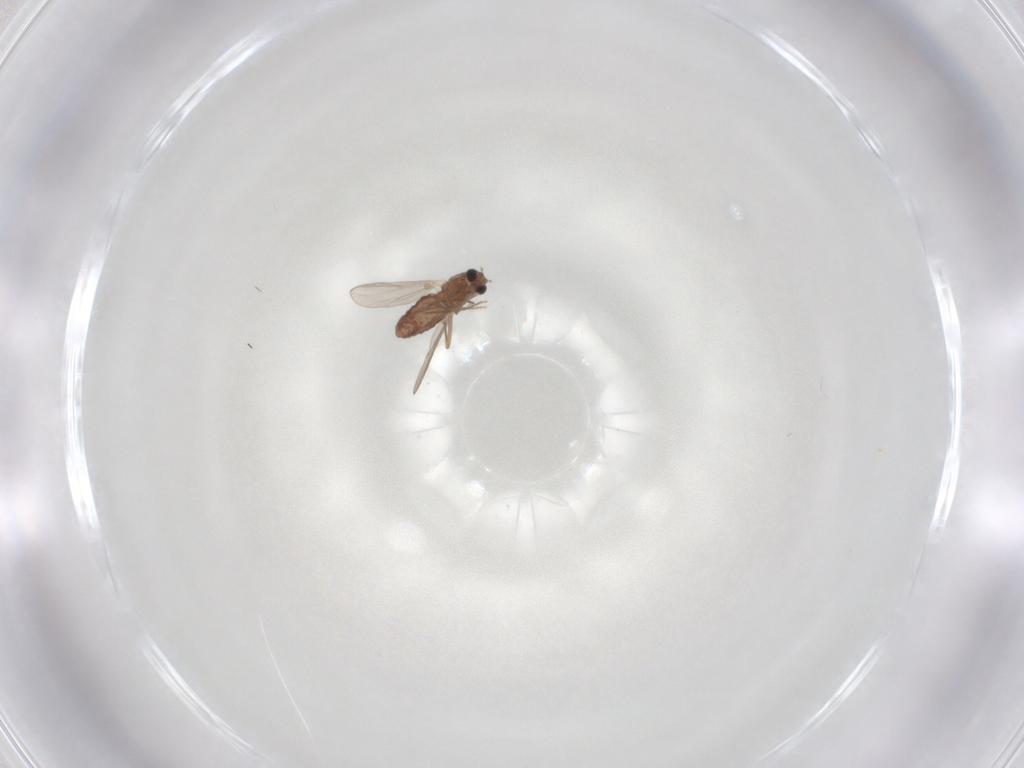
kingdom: Animalia
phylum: Arthropoda
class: Insecta
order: Diptera
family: Chironomidae
